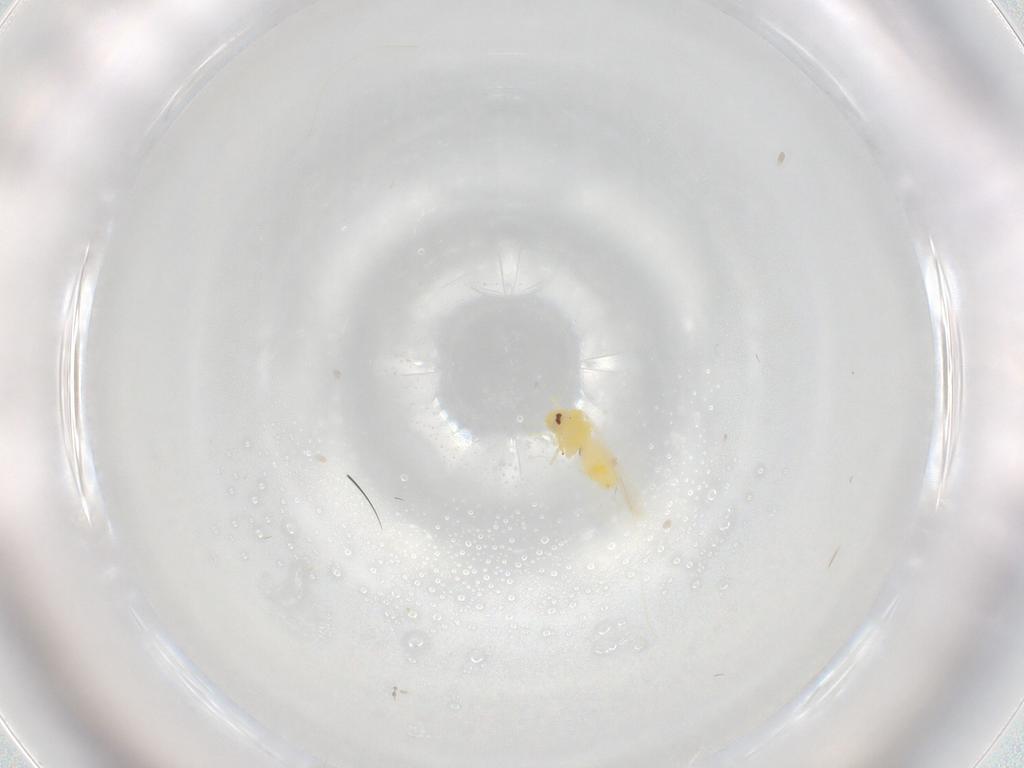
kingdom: Animalia
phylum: Arthropoda
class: Insecta
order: Hemiptera
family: Aleyrodidae
